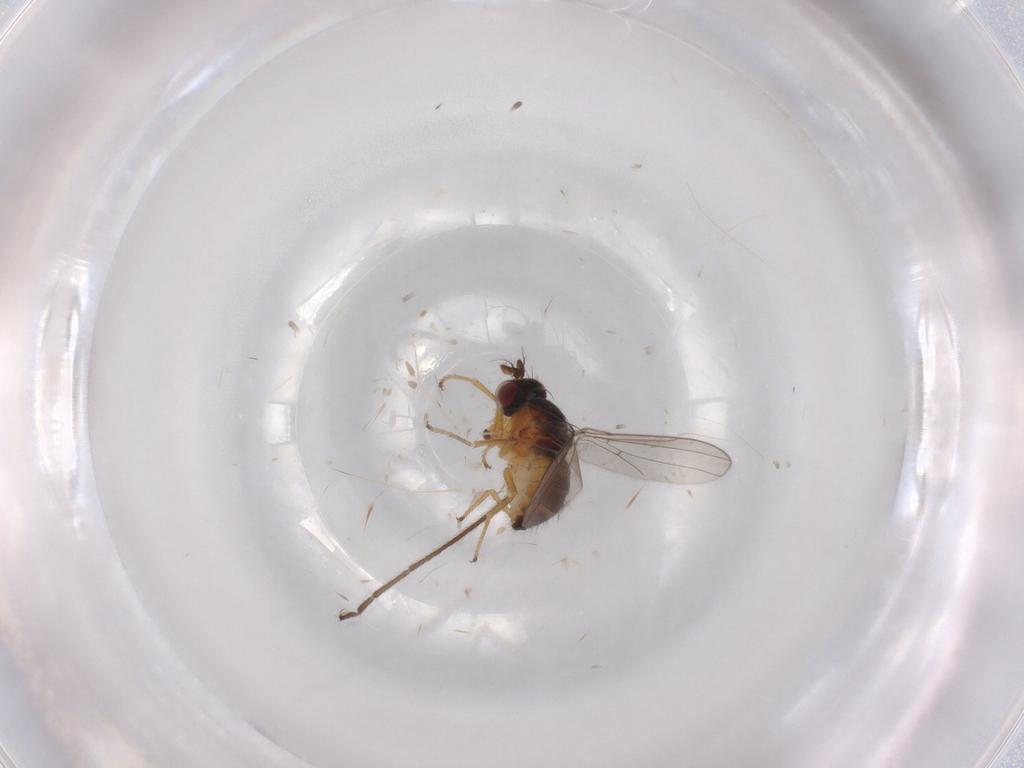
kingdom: Animalia
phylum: Arthropoda
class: Insecta
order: Diptera
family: Ephydridae
